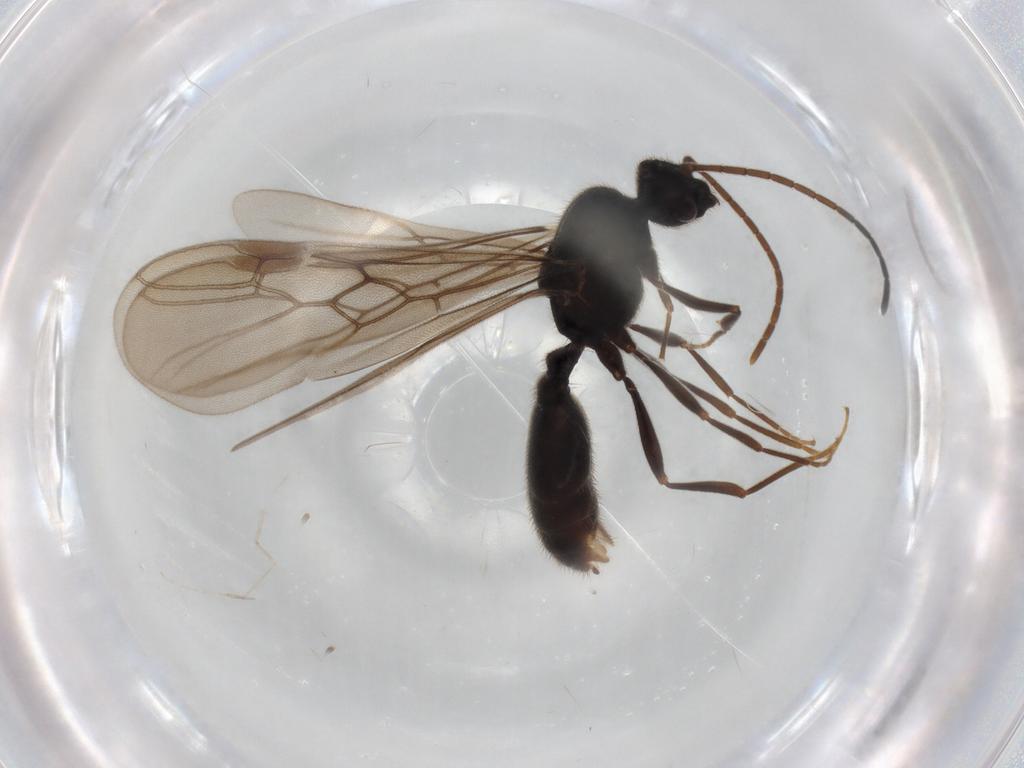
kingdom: Animalia
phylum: Arthropoda
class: Insecta
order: Hymenoptera
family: Formicidae
